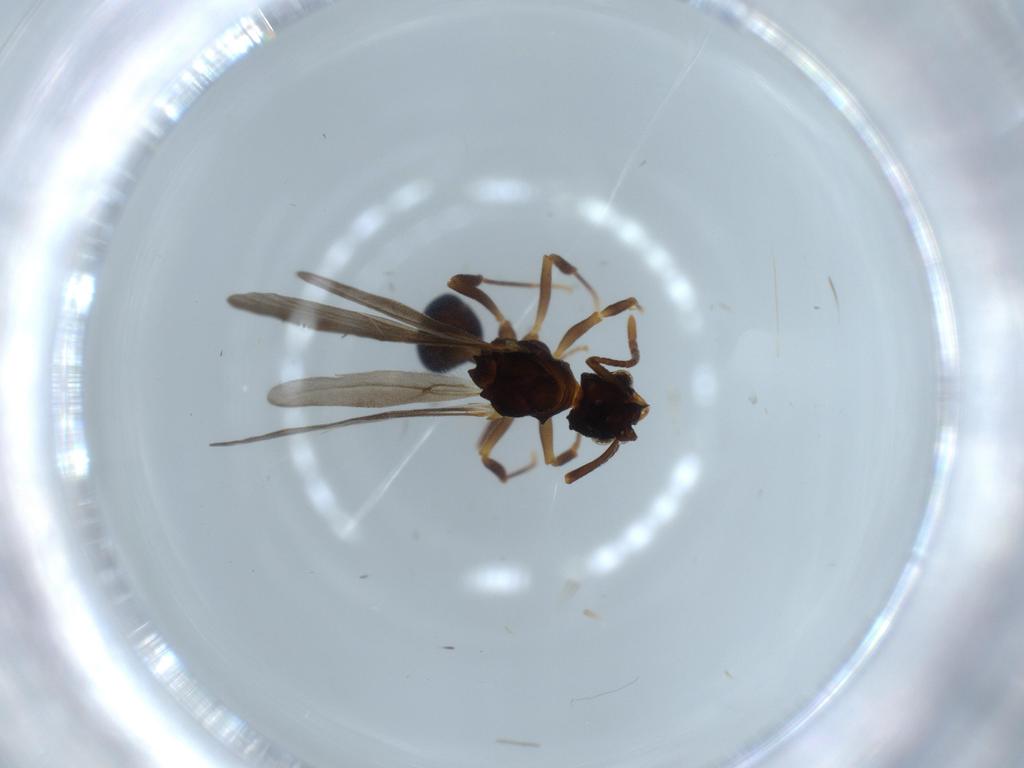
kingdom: Animalia
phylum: Arthropoda
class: Insecta
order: Hymenoptera
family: Formicidae
